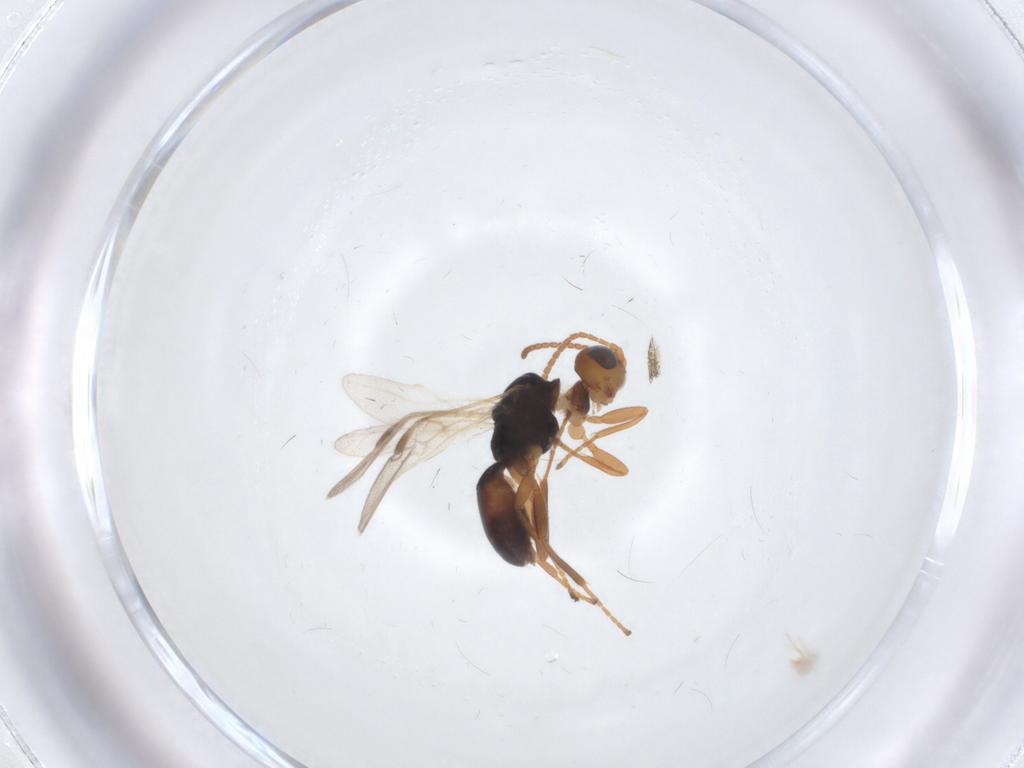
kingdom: Animalia
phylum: Arthropoda
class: Insecta
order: Hymenoptera
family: Braconidae
